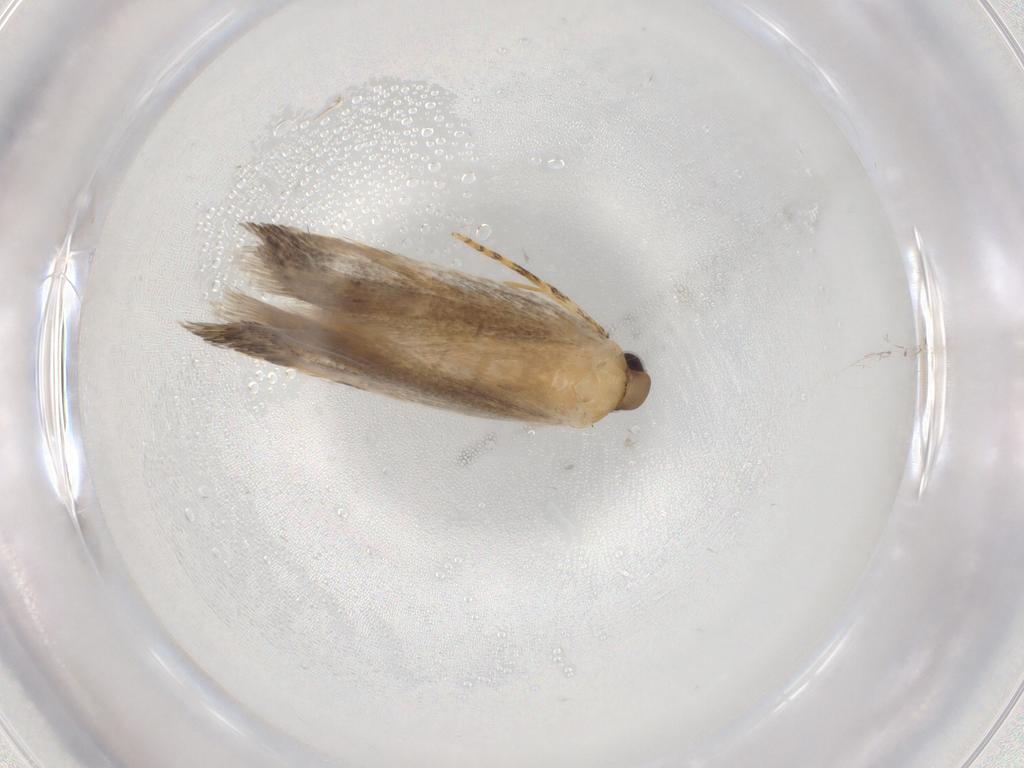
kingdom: Animalia
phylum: Arthropoda
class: Insecta
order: Lepidoptera
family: Autostichidae
